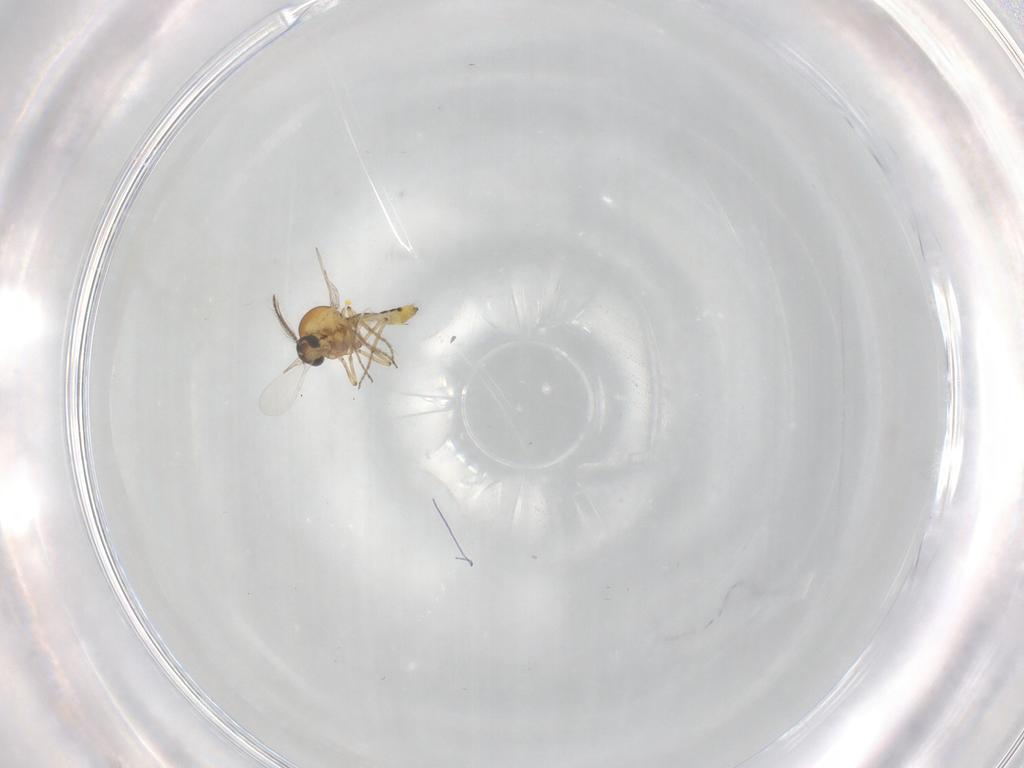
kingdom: Animalia
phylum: Arthropoda
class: Insecta
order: Diptera
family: Ceratopogonidae
